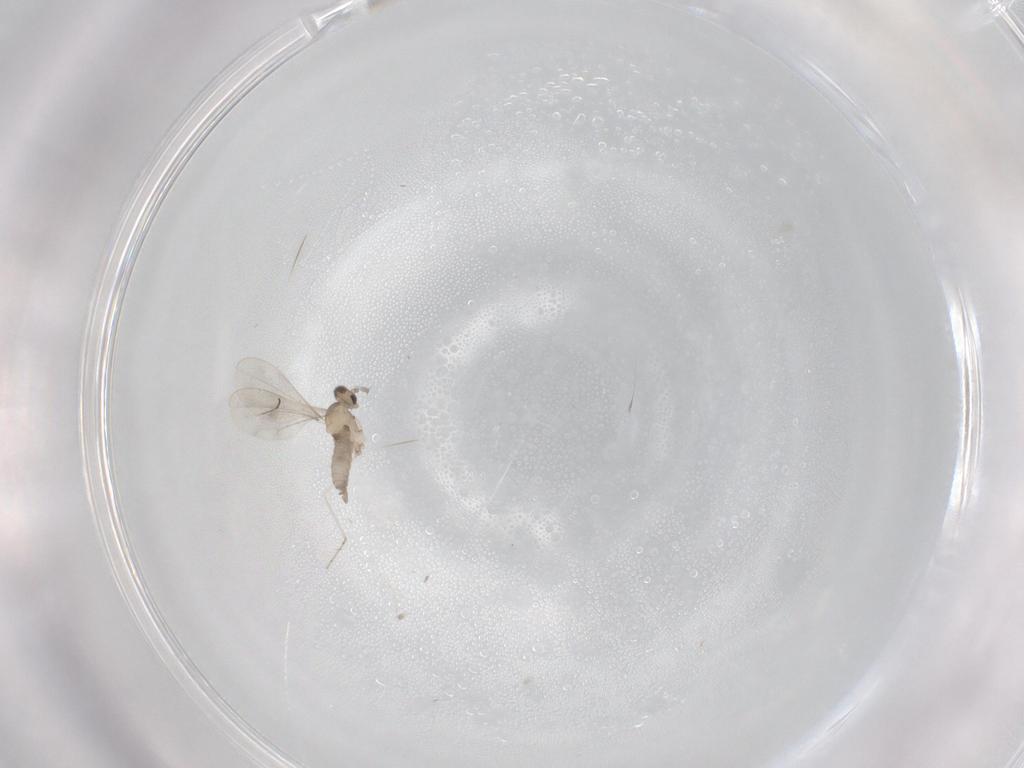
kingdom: Animalia
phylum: Arthropoda
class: Insecta
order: Diptera
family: Cecidomyiidae
